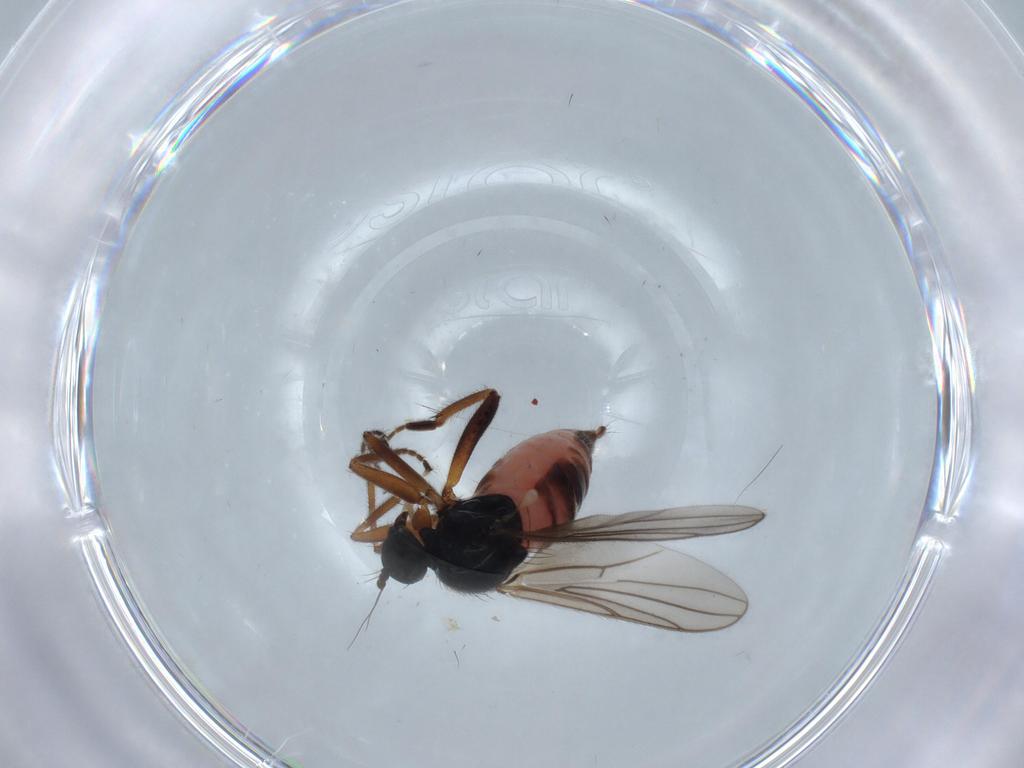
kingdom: Animalia
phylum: Arthropoda
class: Insecta
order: Diptera
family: Hybotidae
